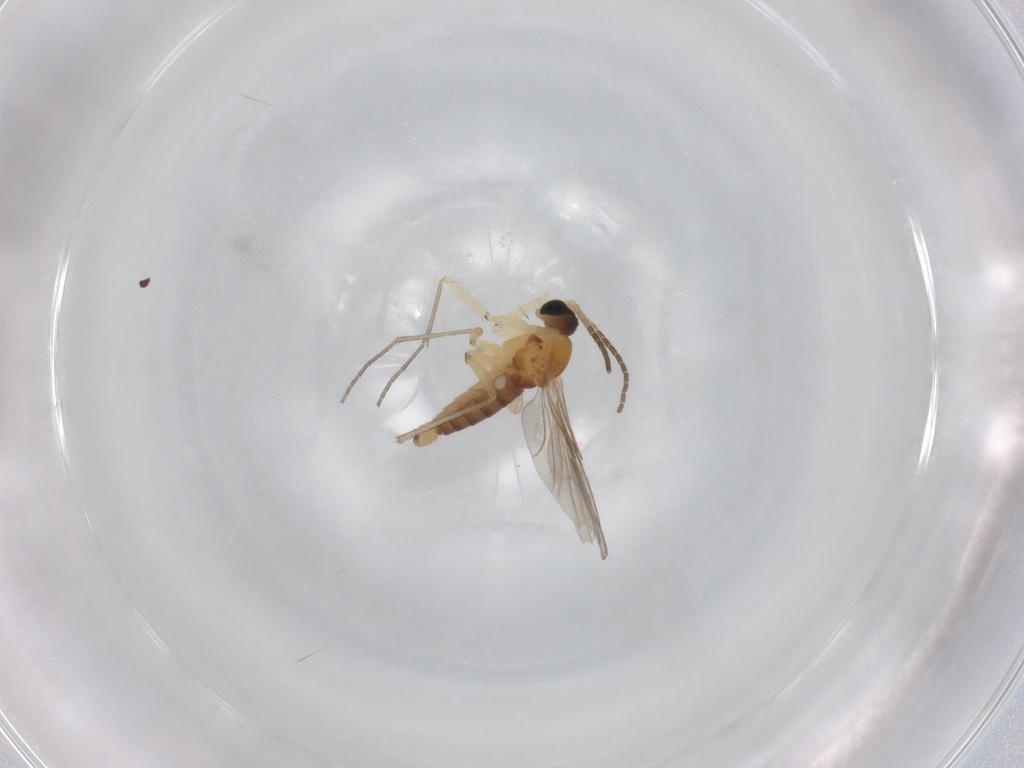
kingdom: Animalia
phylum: Arthropoda
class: Insecta
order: Diptera
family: Sciaridae
